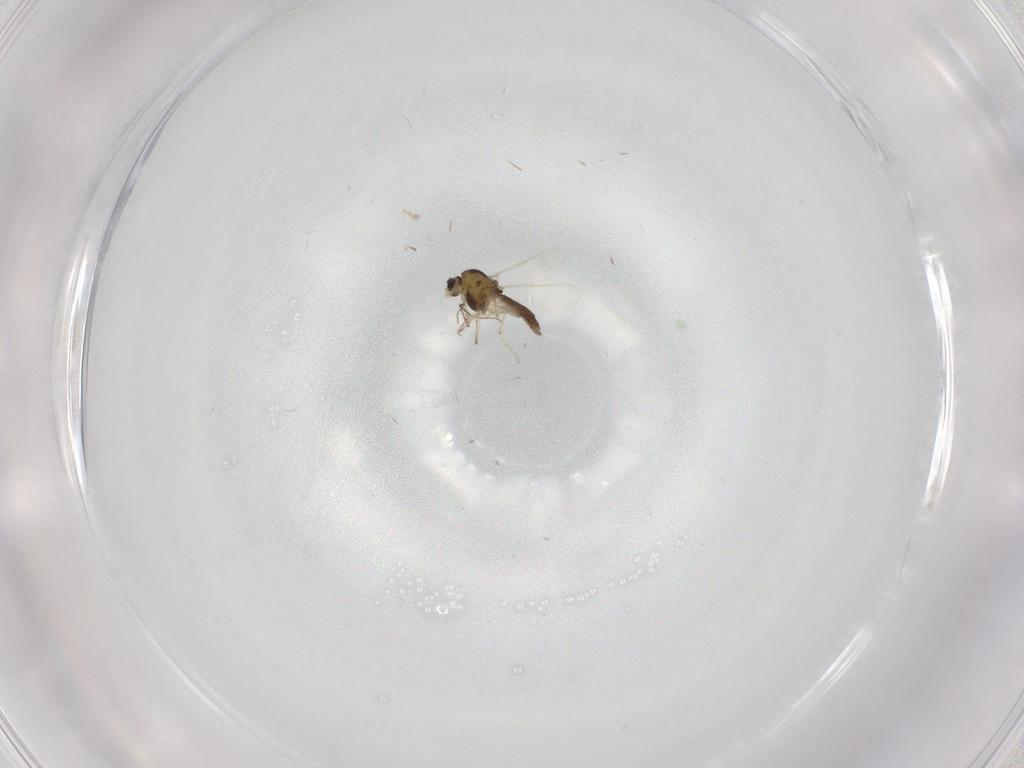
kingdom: Animalia
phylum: Arthropoda
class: Insecta
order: Diptera
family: Chironomidae
